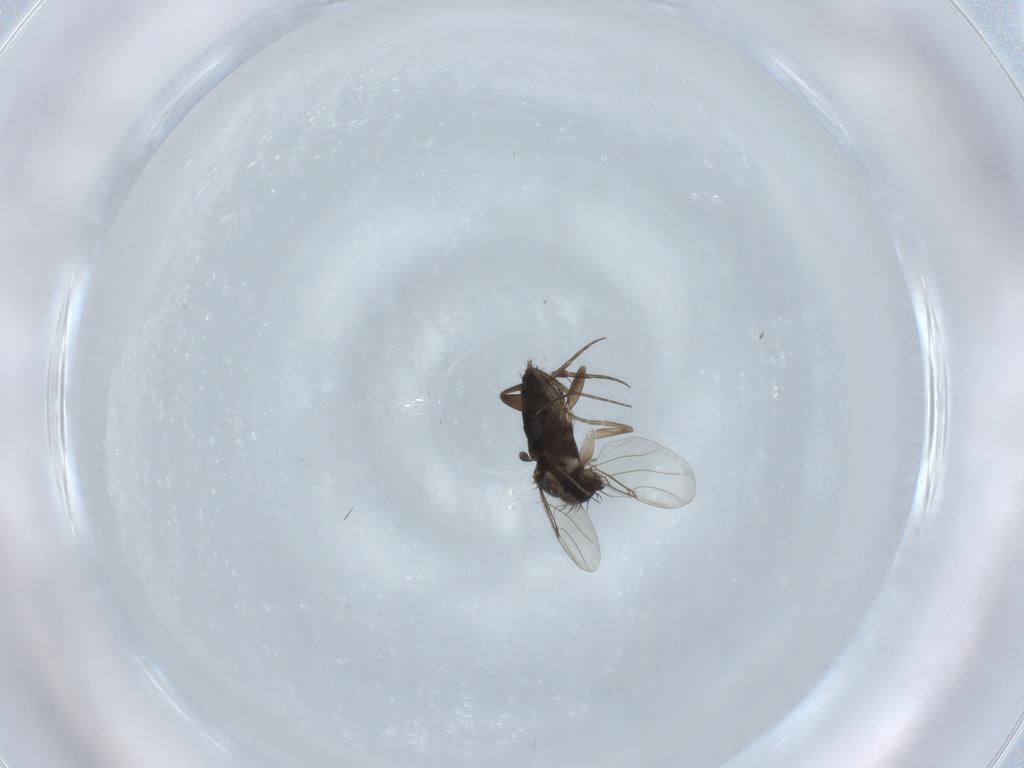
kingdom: Animalia
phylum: Arthropoda
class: Insecta
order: Diptera
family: Phoridae
